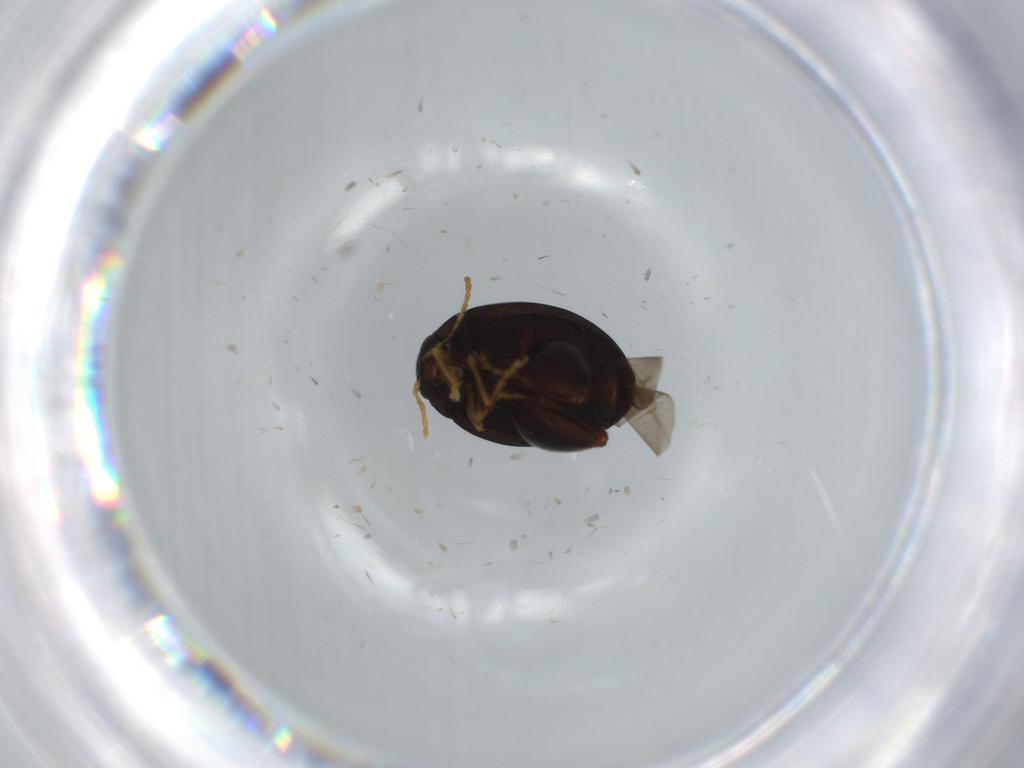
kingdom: Animalia
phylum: Arthropoda
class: Insecta
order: Coleoptera
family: Chrysomelidae
